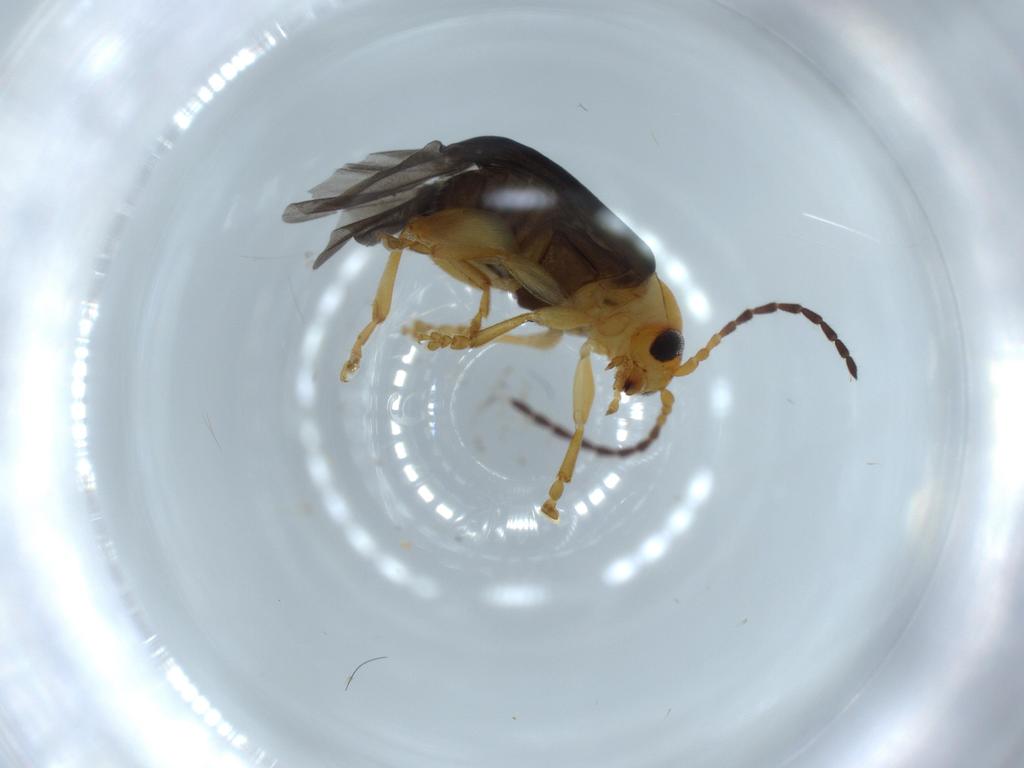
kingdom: Animalia
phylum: Arthropoda
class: Insecta
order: Coleoptera
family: Chrysomelidae
